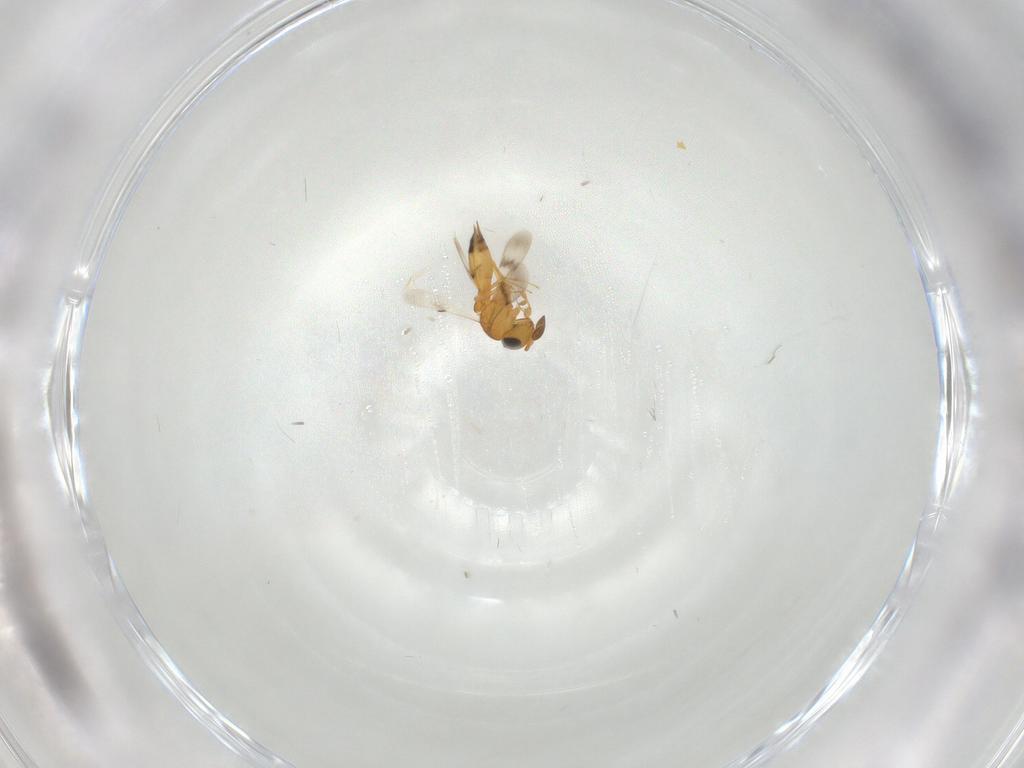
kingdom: Animalia
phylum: Arthropoda
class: Insecta
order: Hymenoptera
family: Scelionidae
